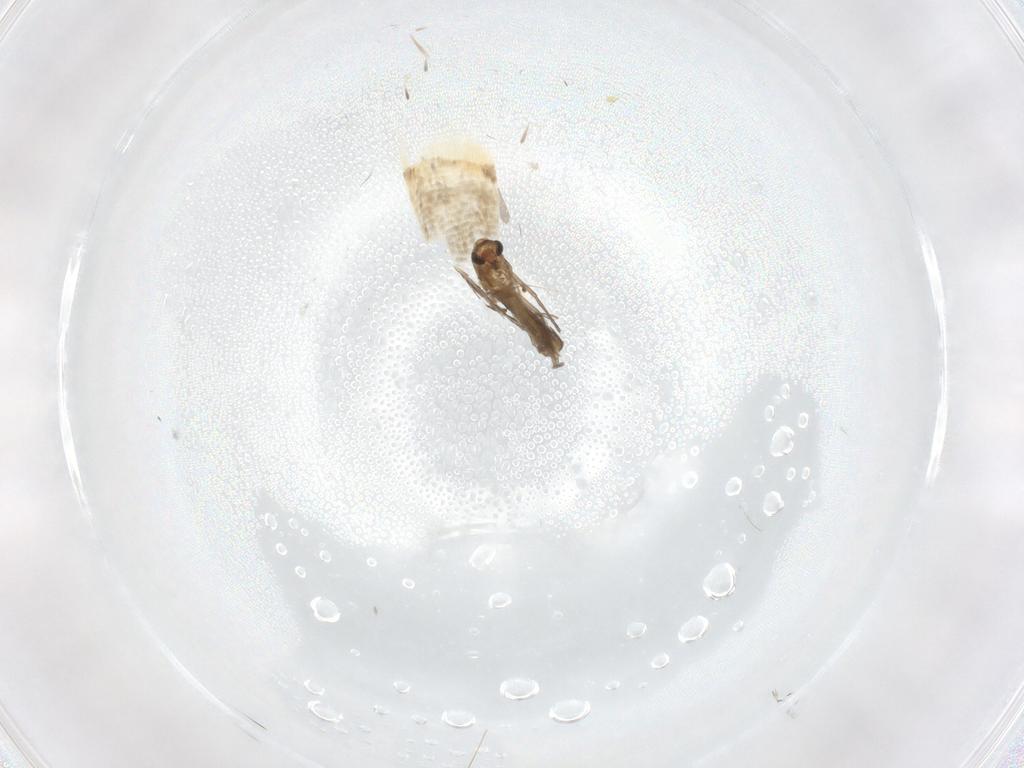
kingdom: Animalia
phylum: Arthropoda
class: Insecta
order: Diptera
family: Chironomidae
